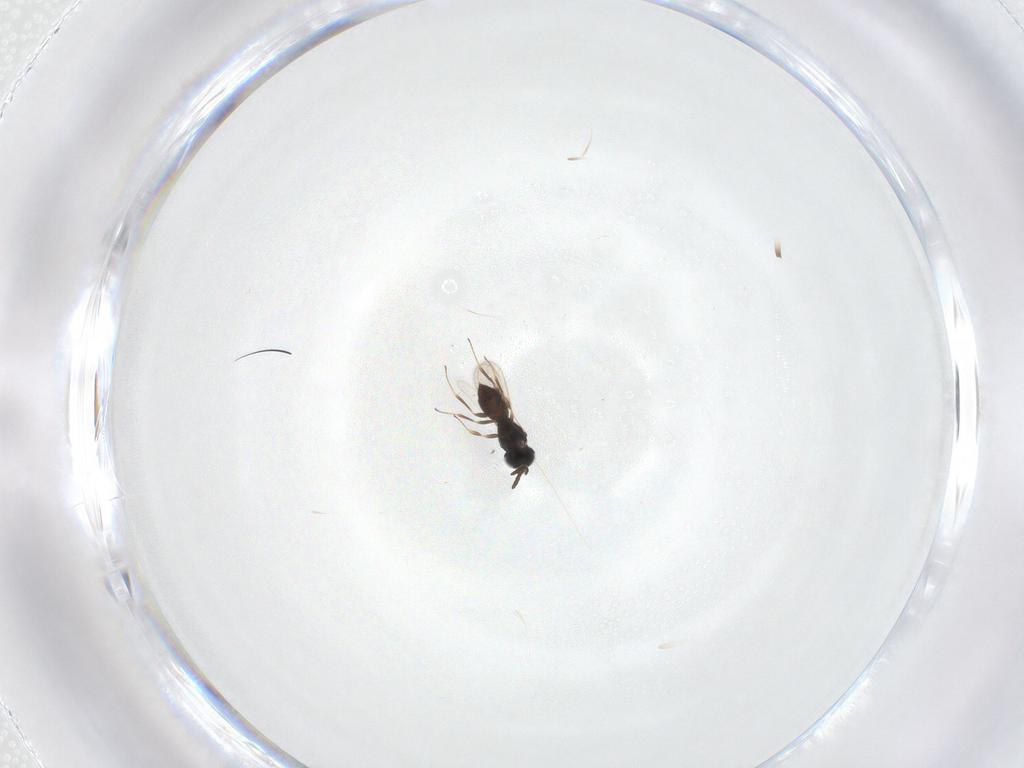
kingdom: Animalia
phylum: Arthropoda
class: Insecta
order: Hymenoptera
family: Scelionidae
